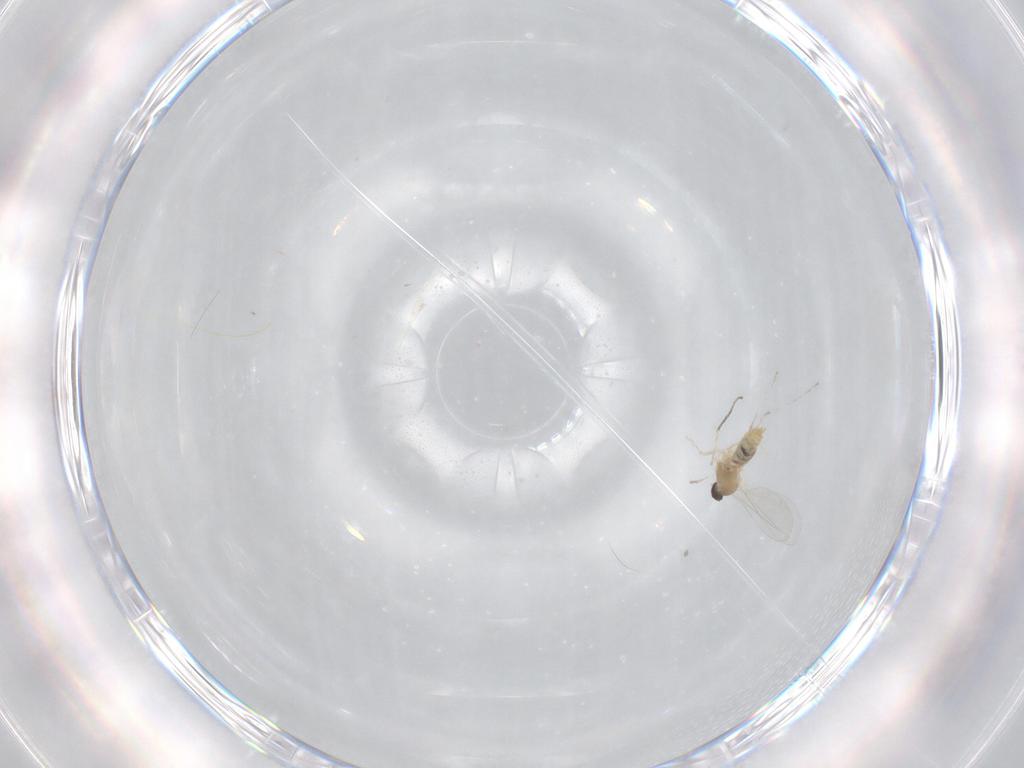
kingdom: Animalia
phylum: Arthropoda
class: Insecta
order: Diptera
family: Cecidomyiidae
